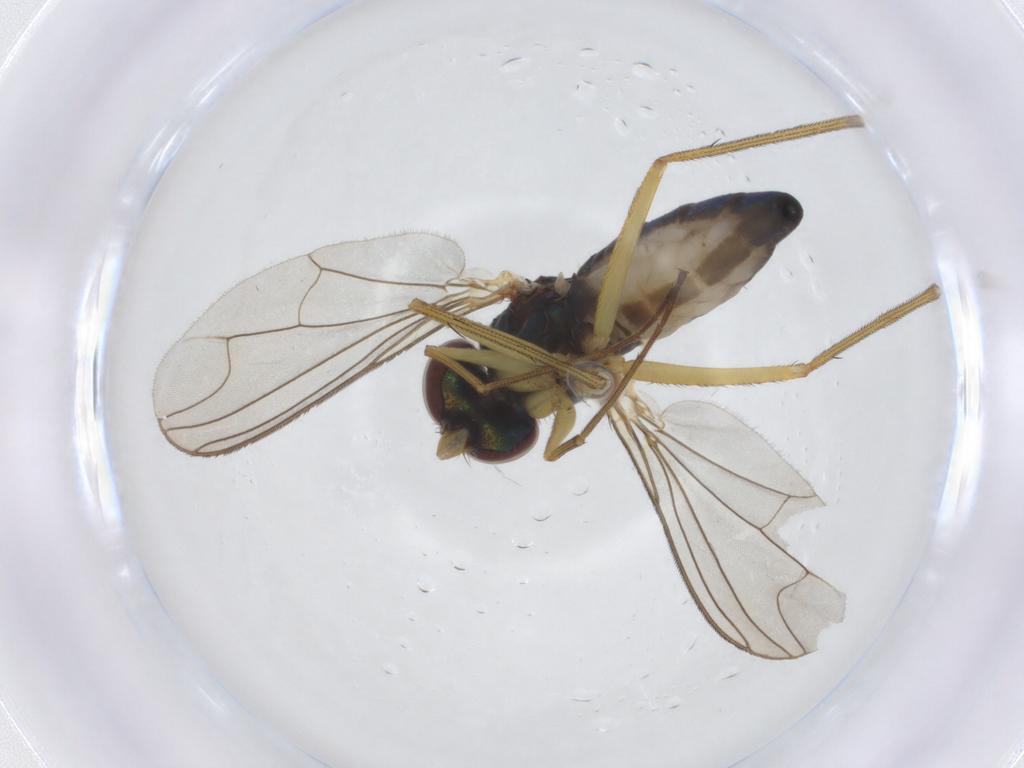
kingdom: Animalia
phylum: Arthropoda
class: Insecta
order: Diptera
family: Dolichopodidae
